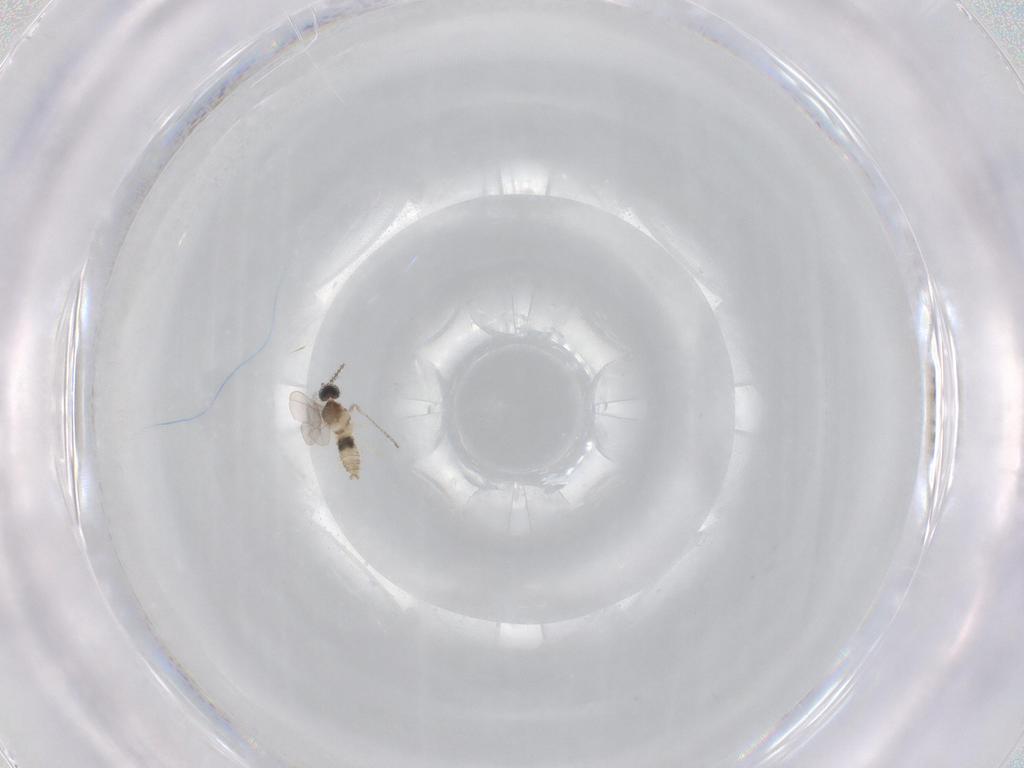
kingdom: Animalia
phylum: Arthropoda
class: Insecta
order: Diptera
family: Cecidomyiidae
